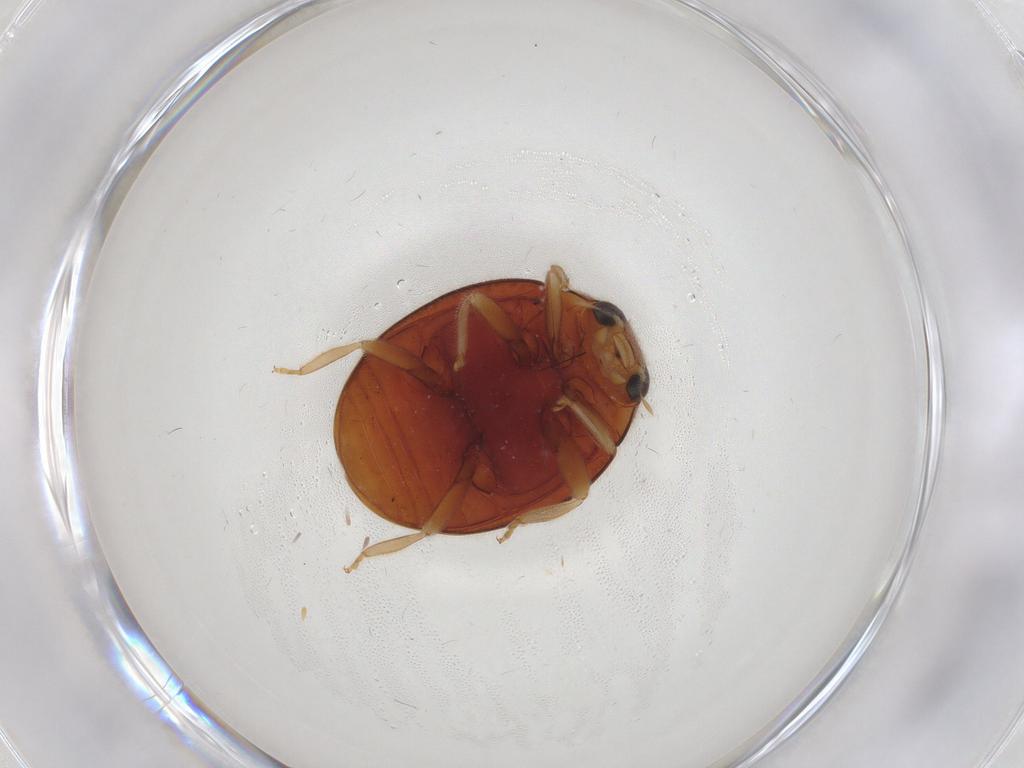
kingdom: Animalia
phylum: Arthropoda
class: Insecta
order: Coleoptera
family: Coccinellidae
